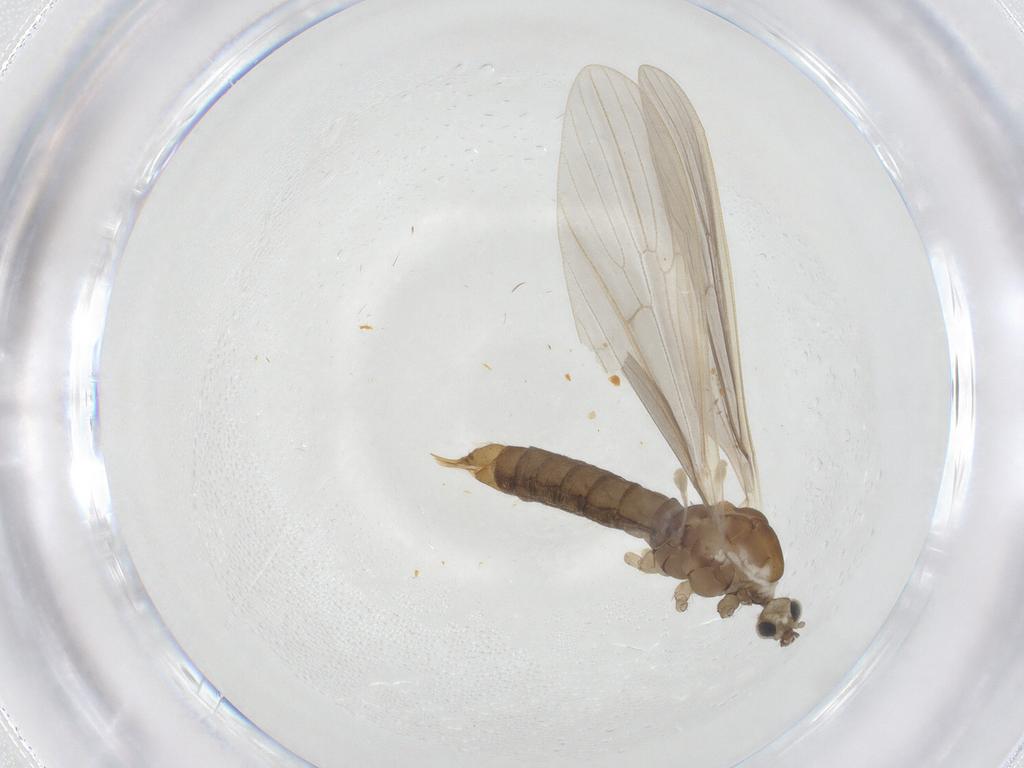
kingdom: Animalia
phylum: Arthropoda
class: Insecta
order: Diptera
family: Limoniidae
